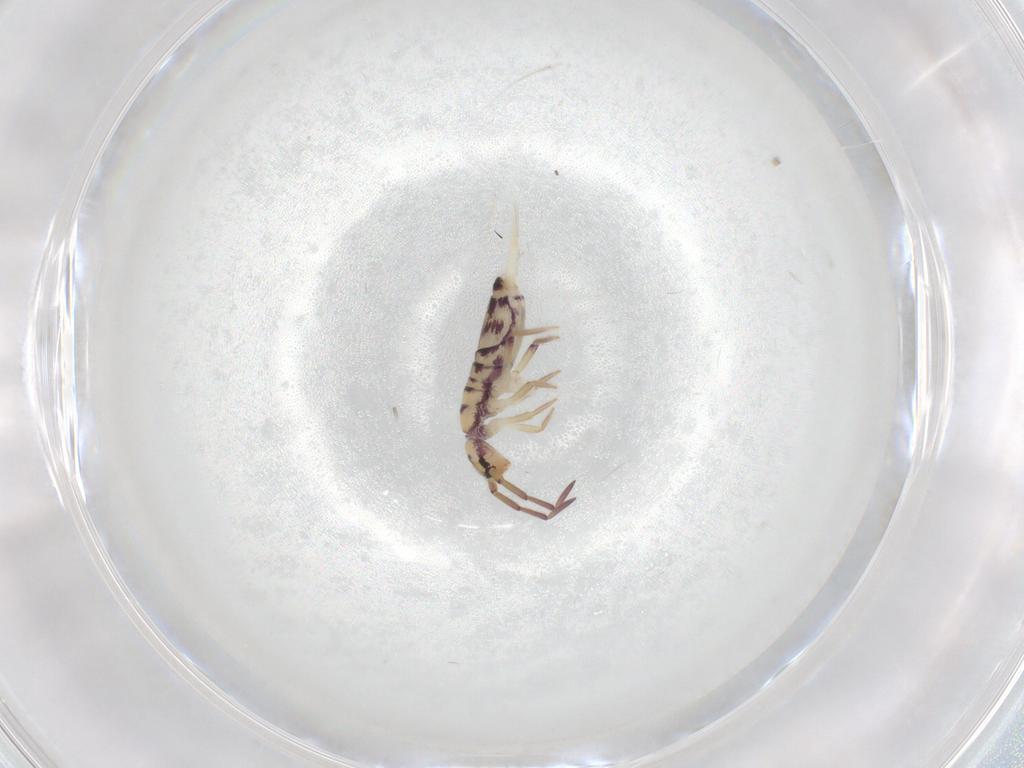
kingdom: Animalia
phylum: Arthropoda
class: Collembola
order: Entomobryomorpha
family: Entomobryidae
